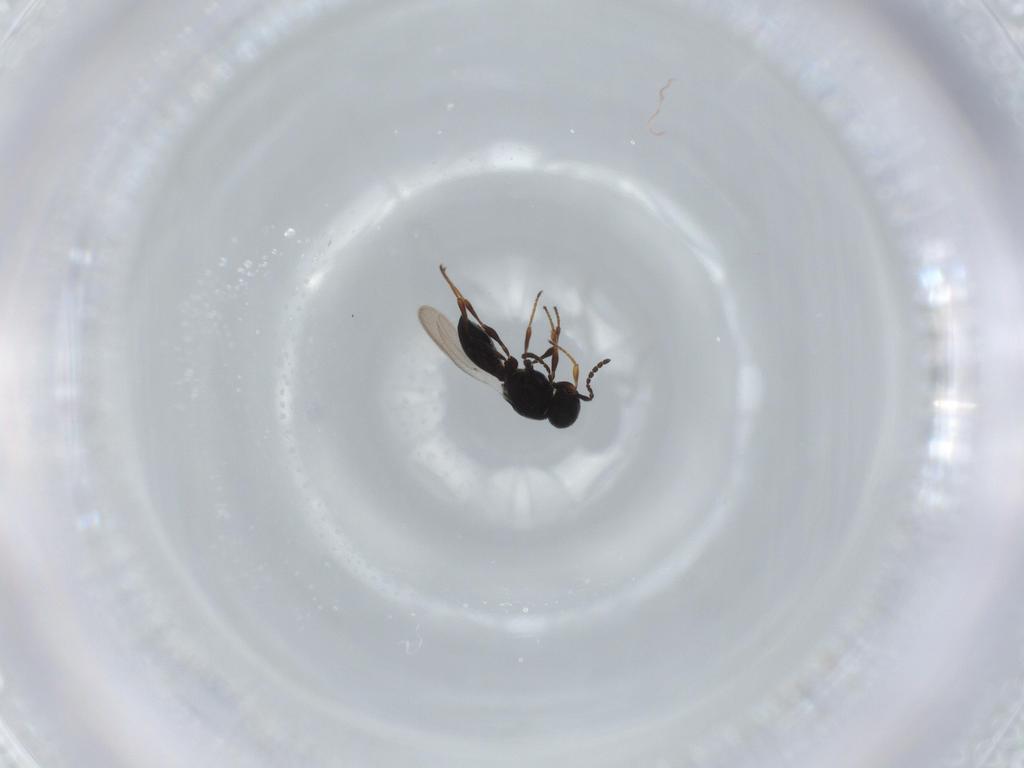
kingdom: Animalia
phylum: Arthropoda
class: Insecta
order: Hymenoptera
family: Platygastridae
